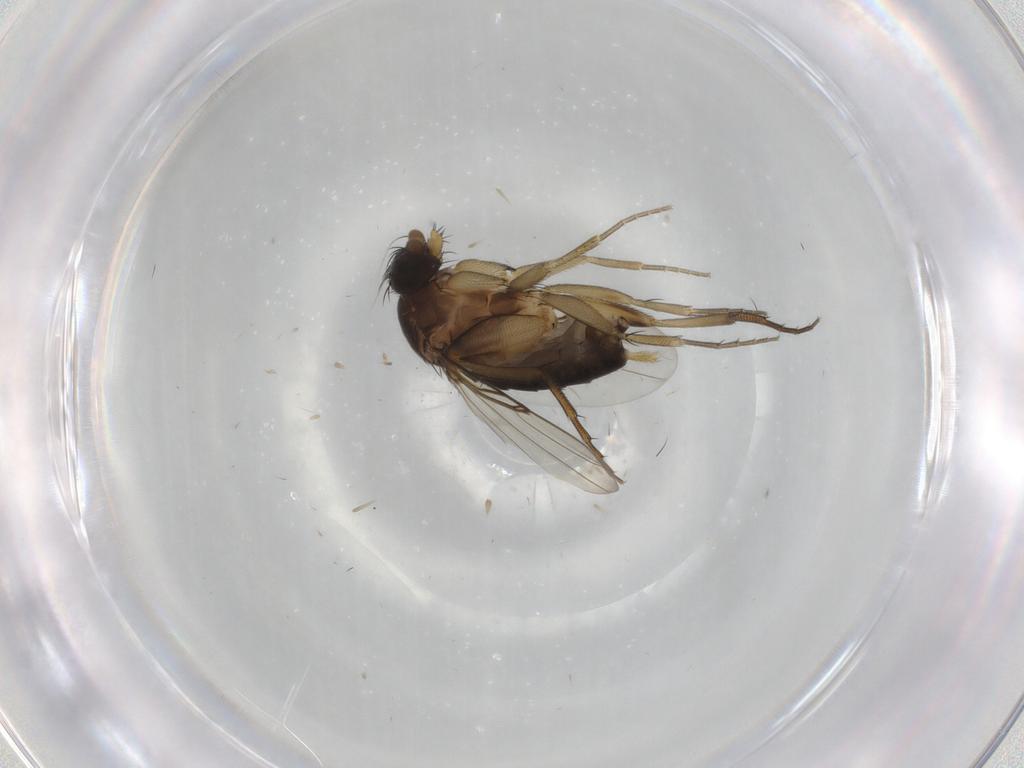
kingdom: Animalia
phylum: Arthropoda
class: Insecta
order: Diptera
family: Phoridae
